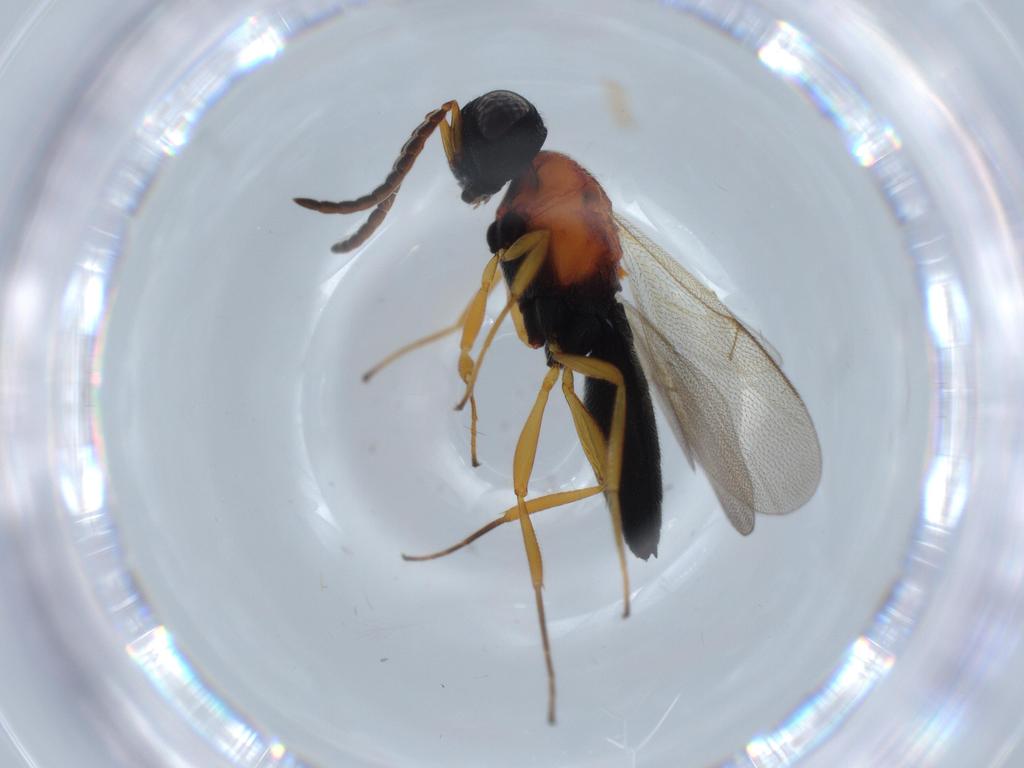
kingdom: Animalia
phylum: Arthropoda
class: Insecta
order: Hymenoptera
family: Scelionidae
